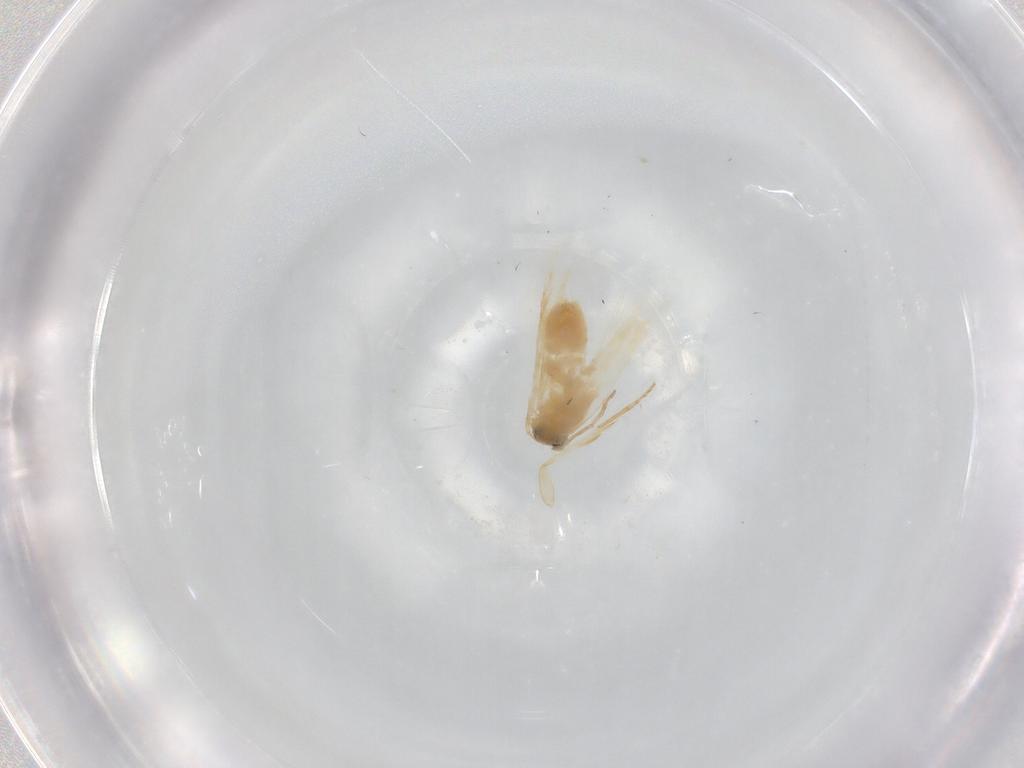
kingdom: Animalia
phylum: Arthropoda
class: Insecta
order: Lepidoptera
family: Nepticulidae
